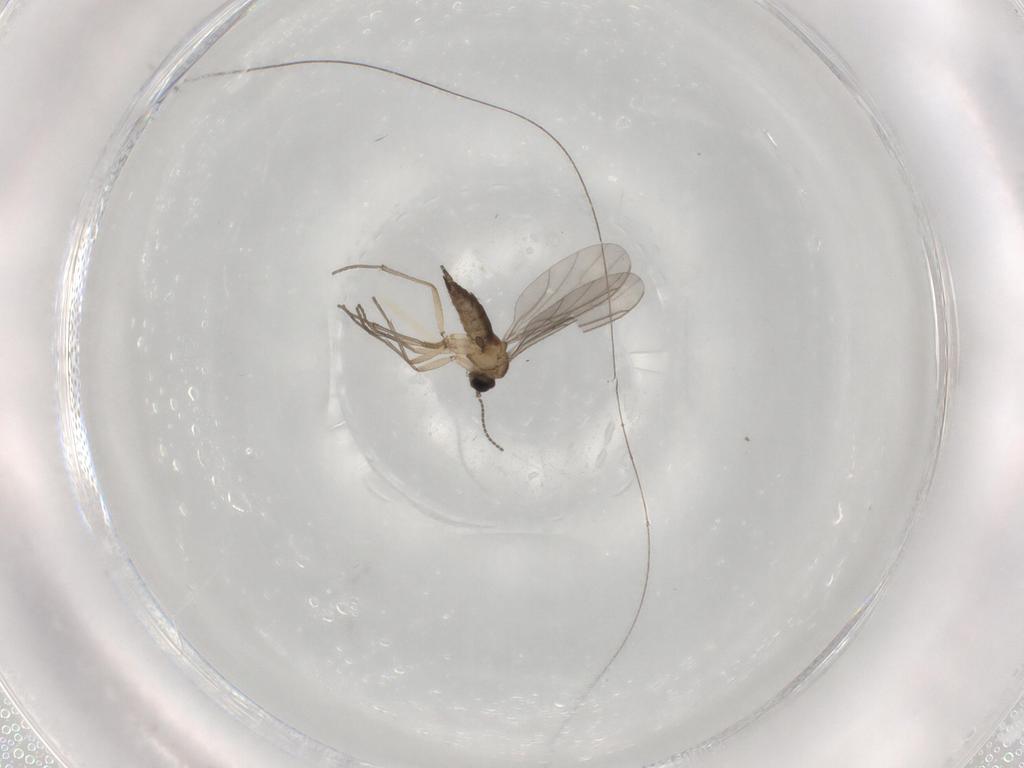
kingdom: Animalia
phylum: Arthropoda
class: Insecta
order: Diptera
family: Sciaridae
